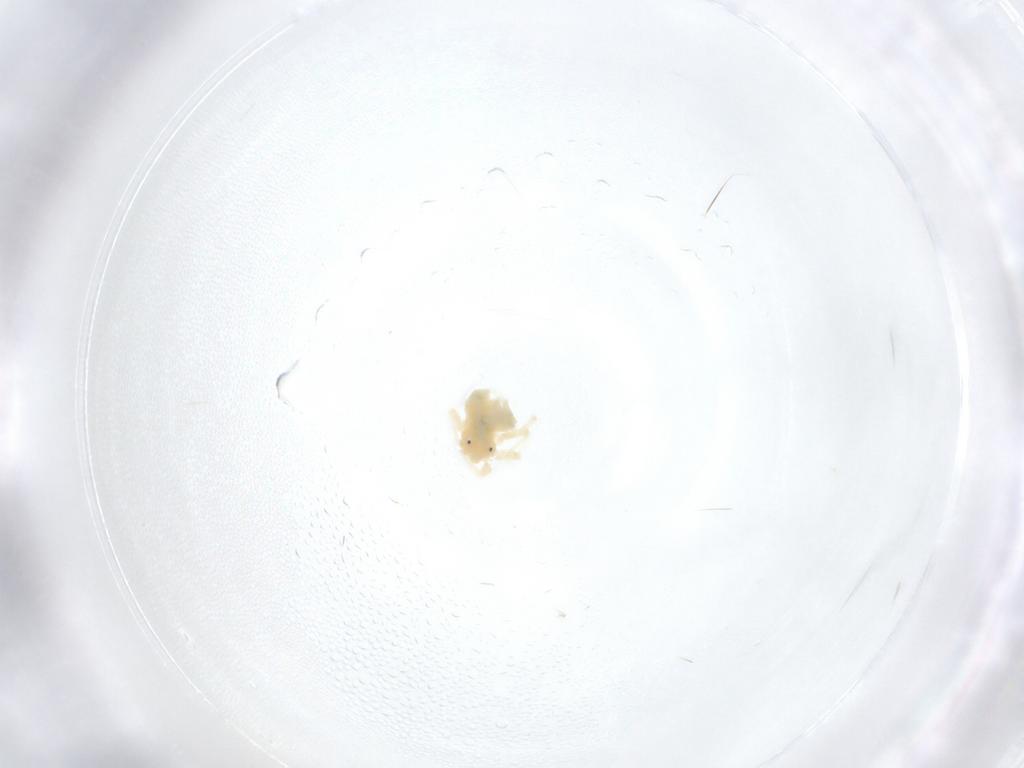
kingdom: Animalia
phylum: Arthropoda
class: Arachnida
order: Trombidiformes
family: Anystidae
